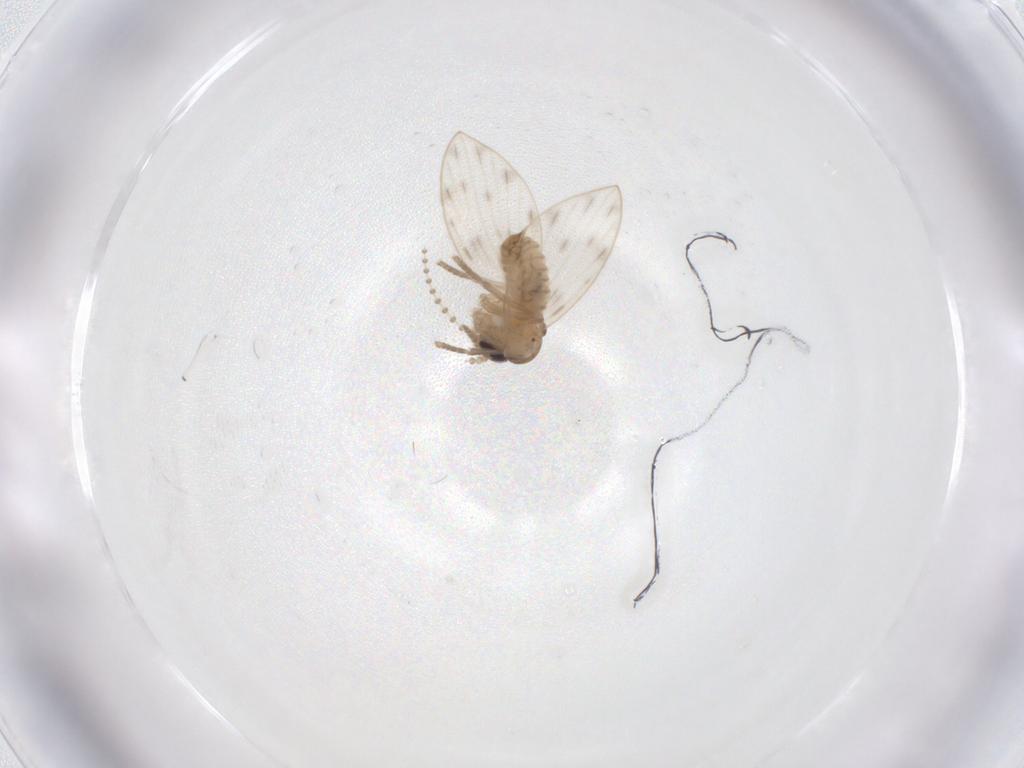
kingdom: Animalia
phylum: Arthropoda
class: Insecta
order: Diptera
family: Psychodidae
